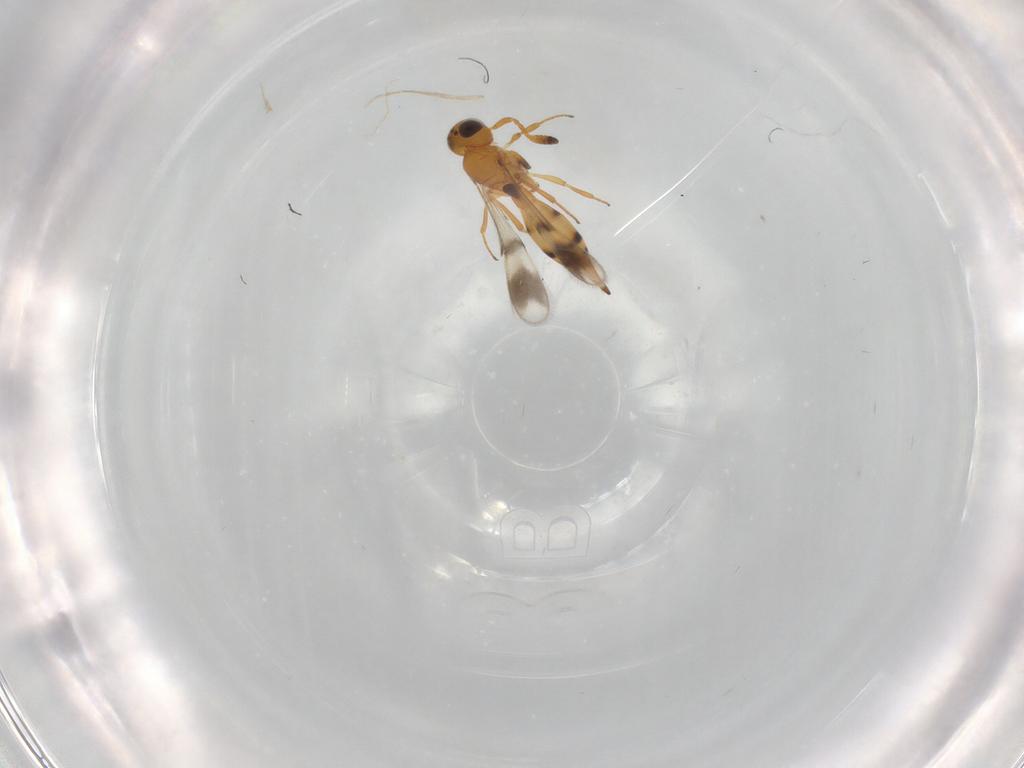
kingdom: Animalia
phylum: Arthropoda
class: Insecta
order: Hymenoptera
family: Scelionidae
